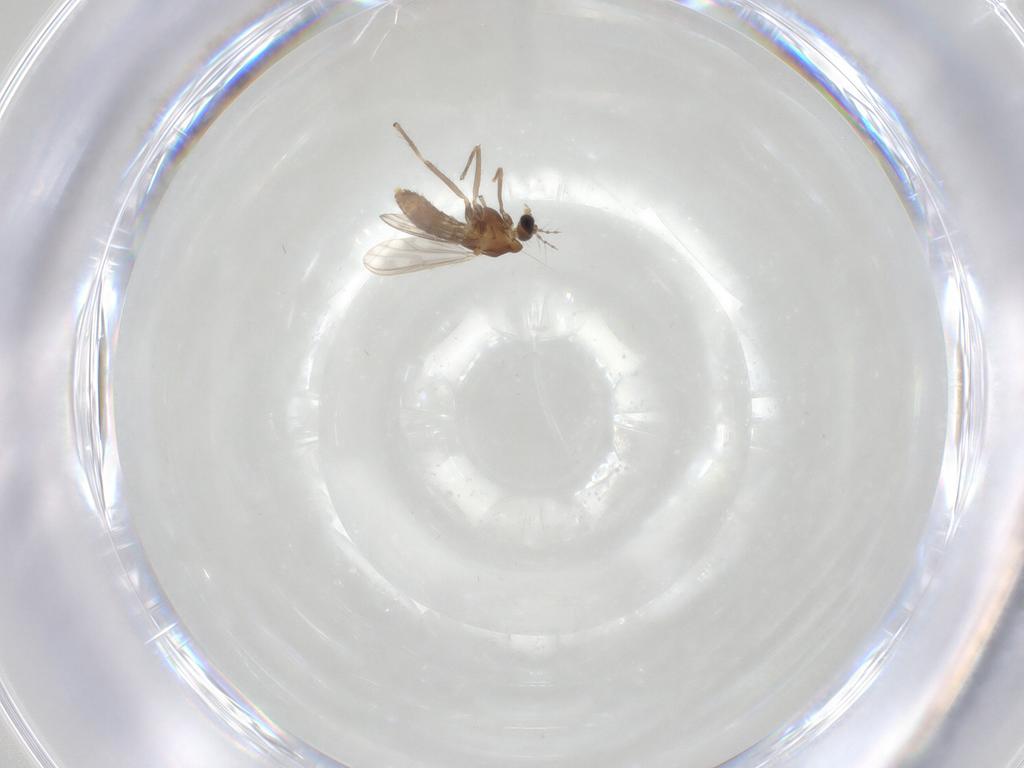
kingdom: Animalia
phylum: Arthropoda
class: Insecta
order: Diptera
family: Chironomidae
